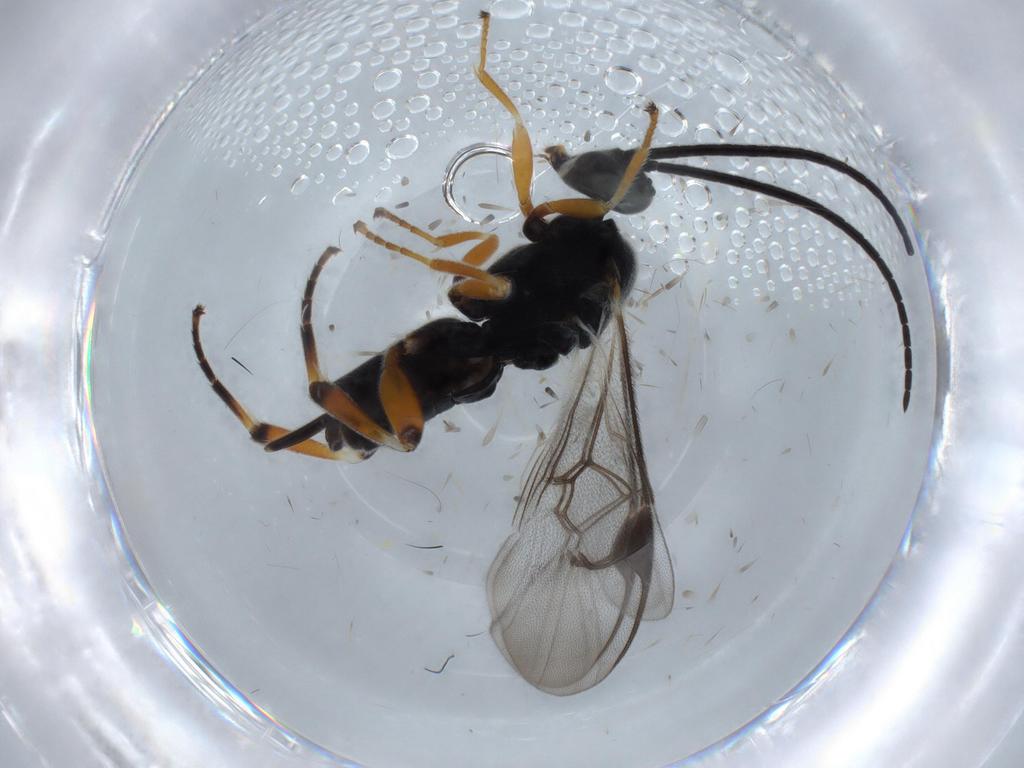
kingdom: Animalia
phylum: Arthropoda
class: Insecta
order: Hymenoptera
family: Braconidae
